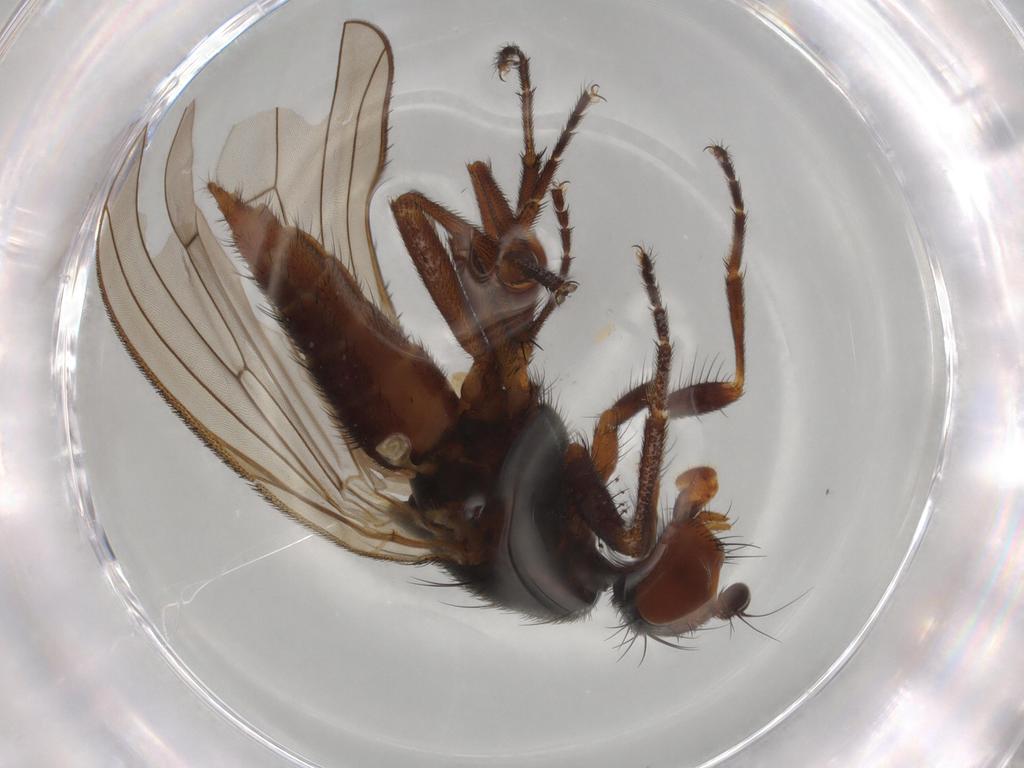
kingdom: Animalia
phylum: Arthropoda
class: Insecta
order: Diptera
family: Heleomyzidae
